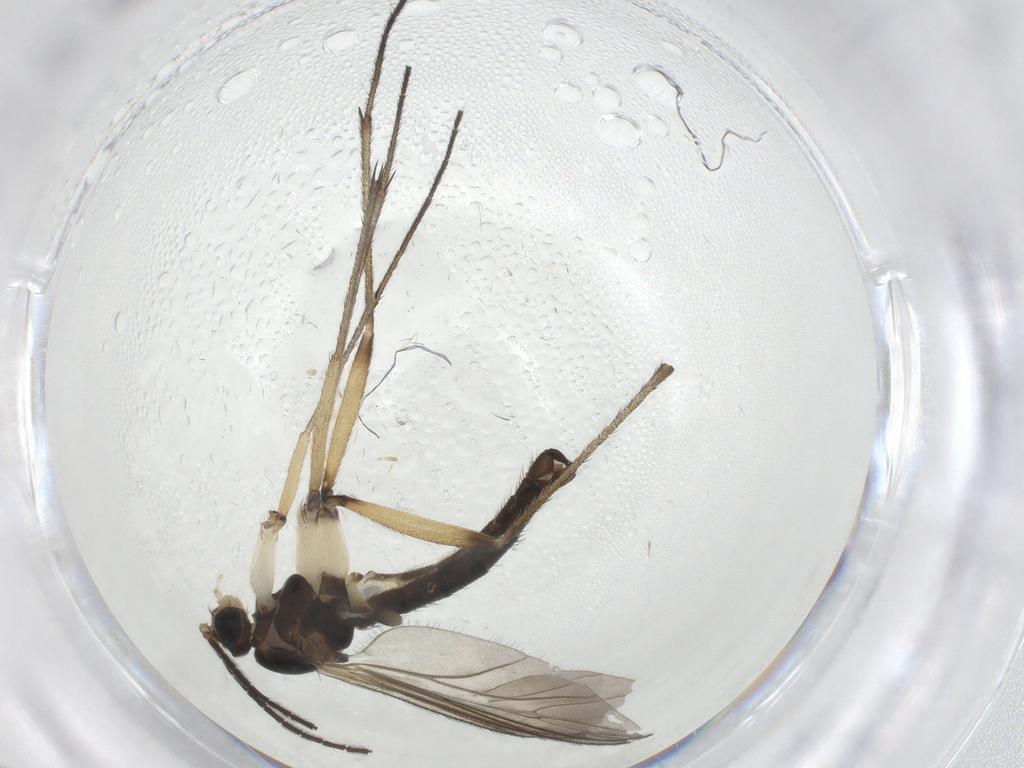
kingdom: Animalia
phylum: Arthropoda
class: Insecta
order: Diptera
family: Sciaridae
